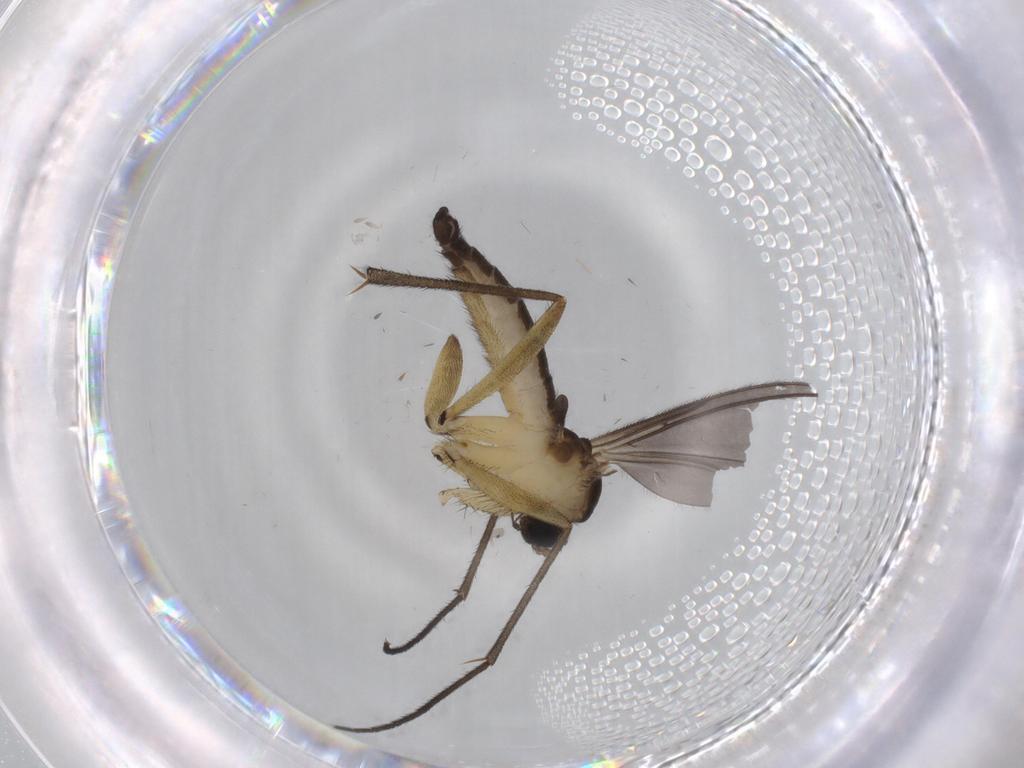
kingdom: Animalia
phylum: Arthropoda
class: Insecta
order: Diptera
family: Sciaridae
